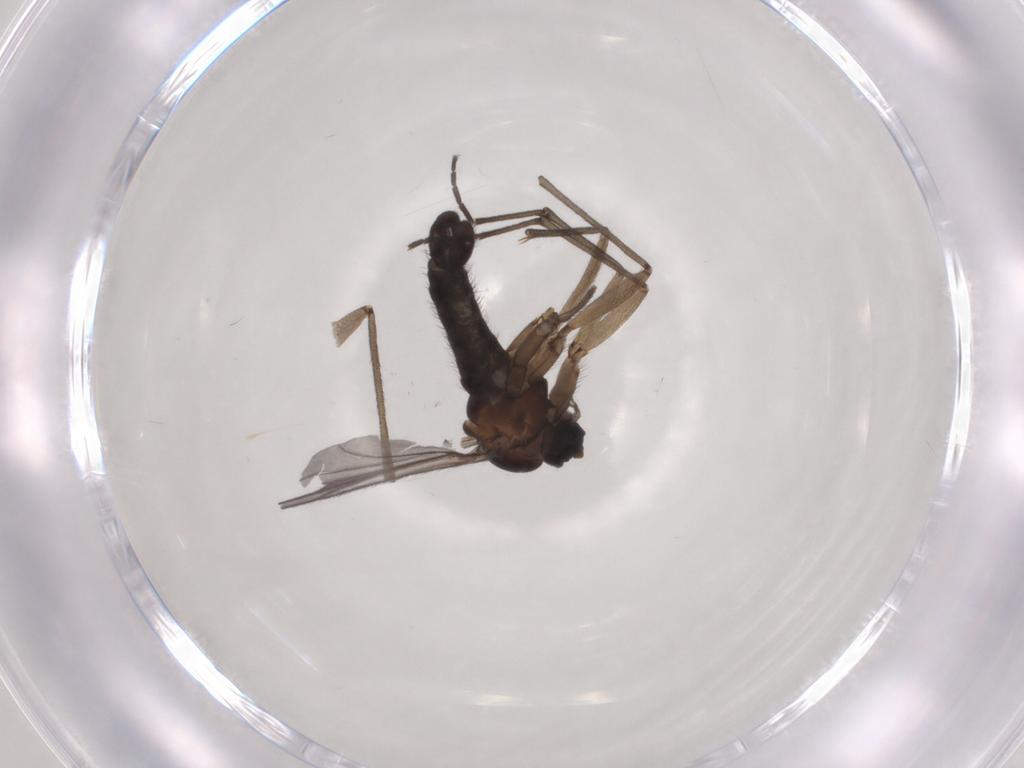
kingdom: Animalia
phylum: Arthropoda
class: Insecta
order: Diptera
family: Sciaridae
